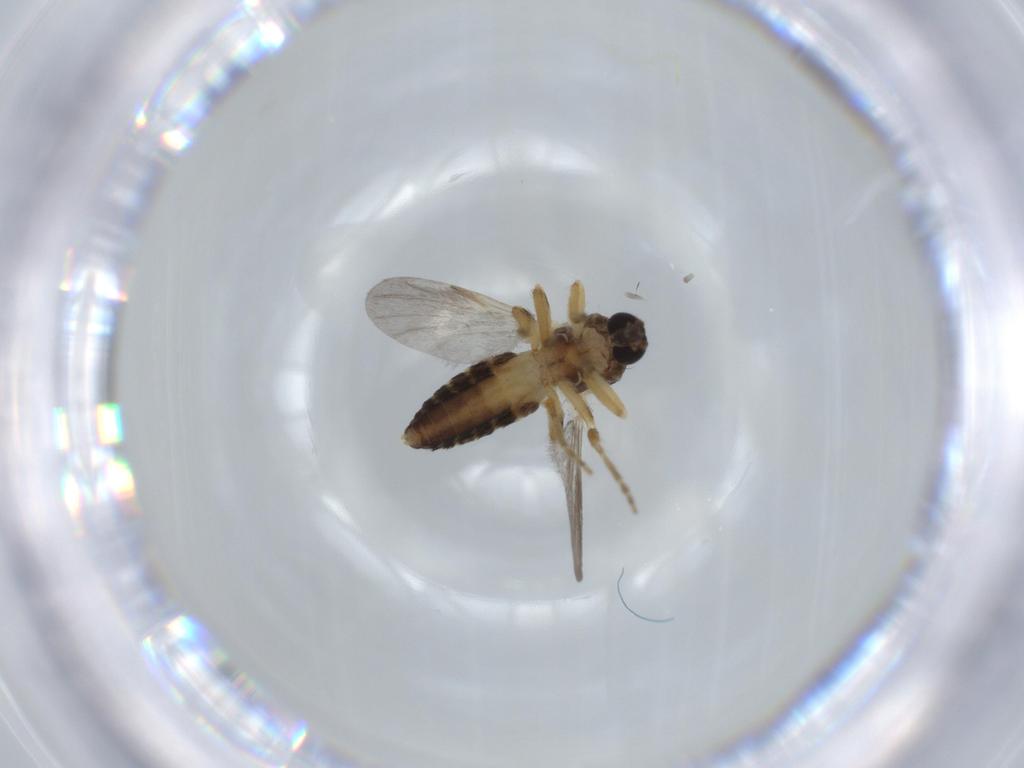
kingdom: Animalia
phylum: Arthropoda
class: Insecta
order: Diptera
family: Ceratopogonidae
